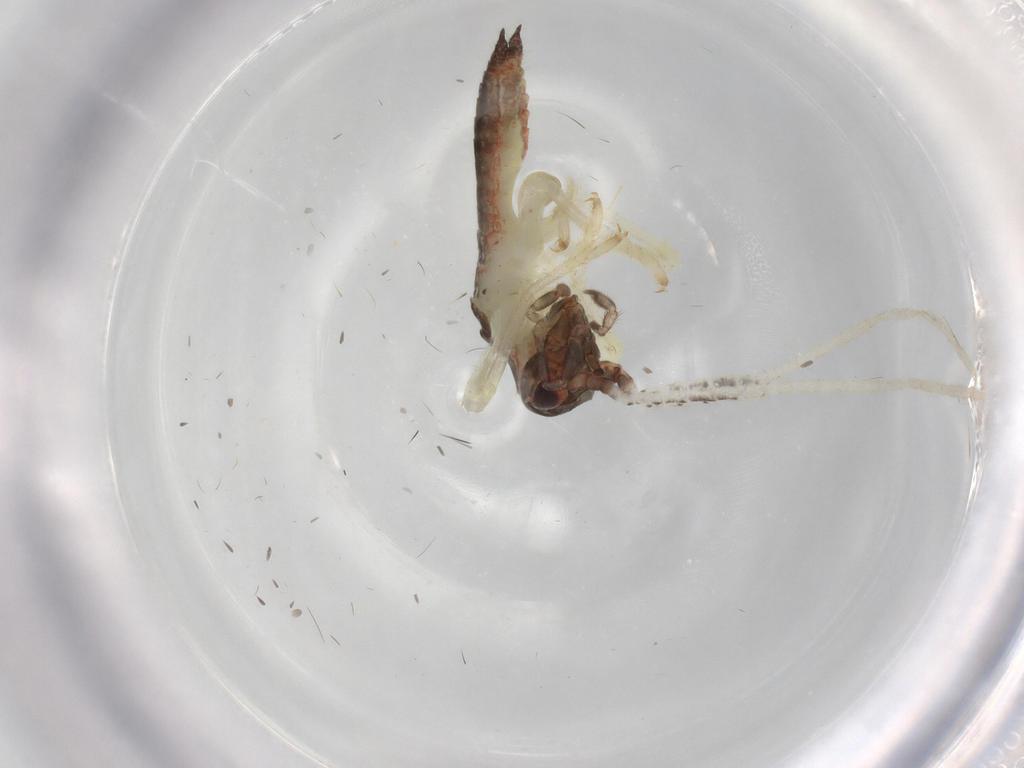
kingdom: Animalia
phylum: Arthropoda
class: Insecta
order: Orthoptera
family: Oecanthidae
